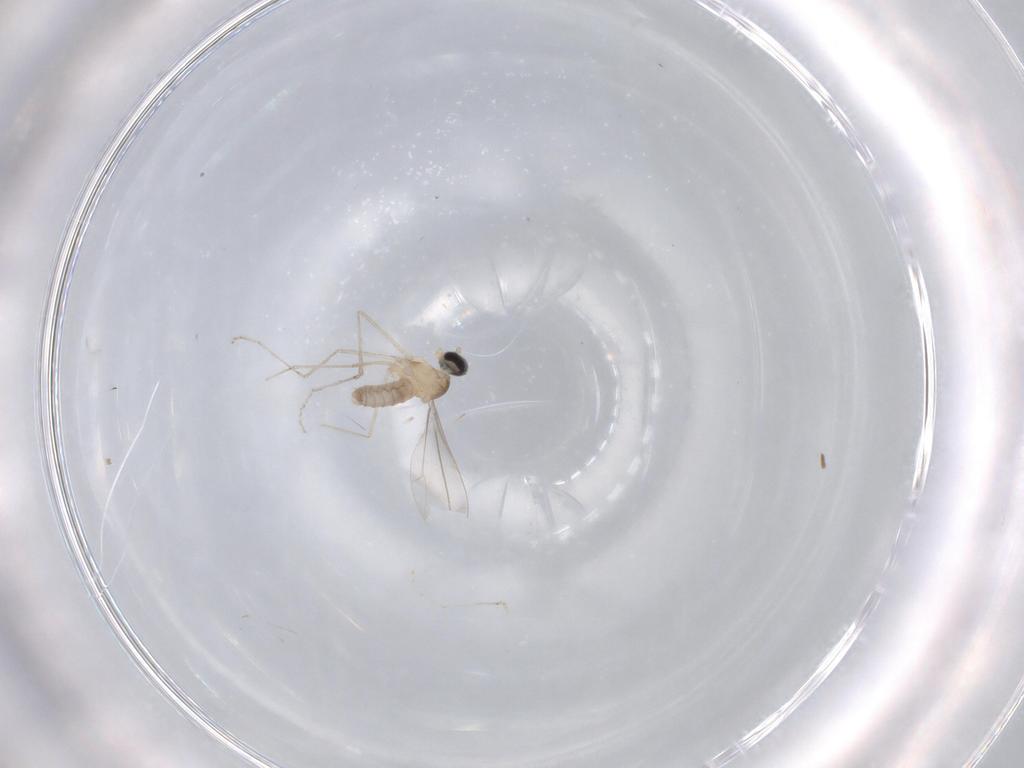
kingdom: Animalia
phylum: Arthropoda
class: Insecta
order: Diptera
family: Cecidomyiidae
